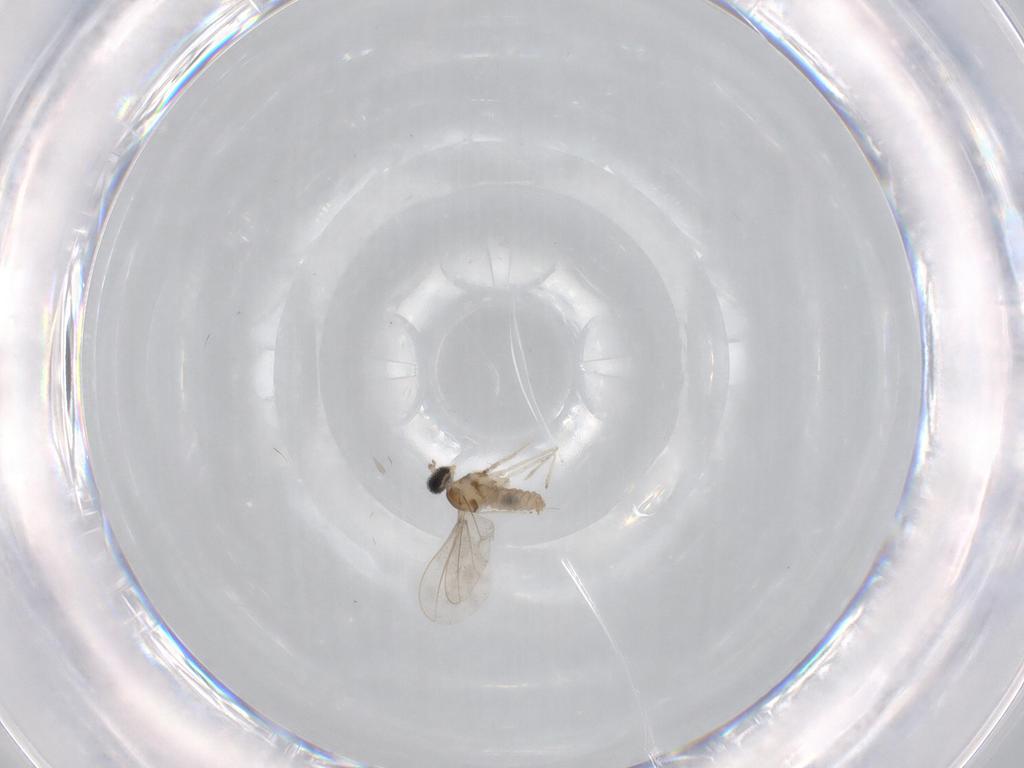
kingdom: Animalia
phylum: Arthropoda
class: Insecta
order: Diptera
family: Cecidomyiidae
